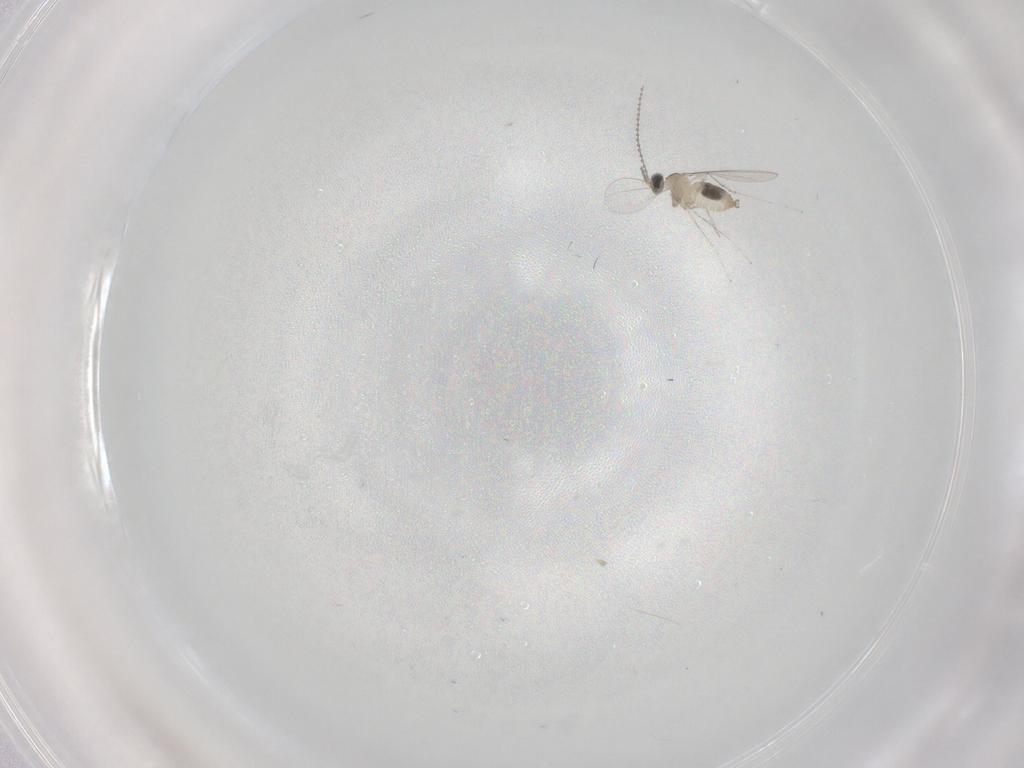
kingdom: Animalia
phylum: Arthropoda
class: Insecta
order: Diptera
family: Cecidomyiidae
